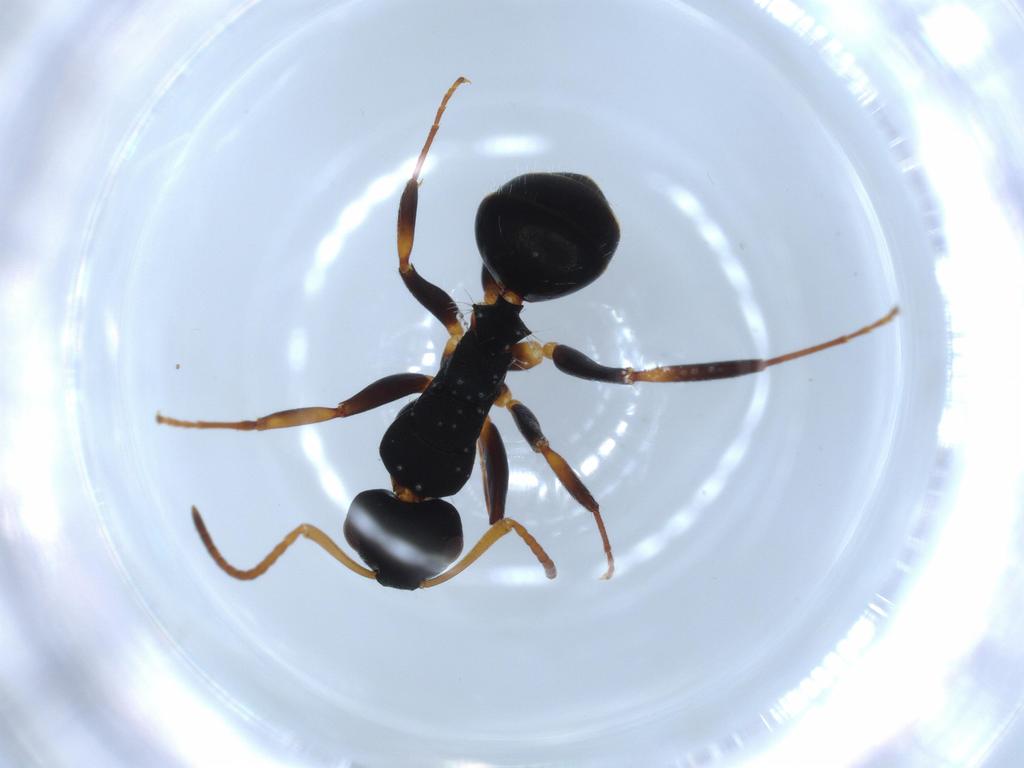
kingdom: Animalia
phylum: Arthropoda
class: Insecta
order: Hymenoptera
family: Formicidae
